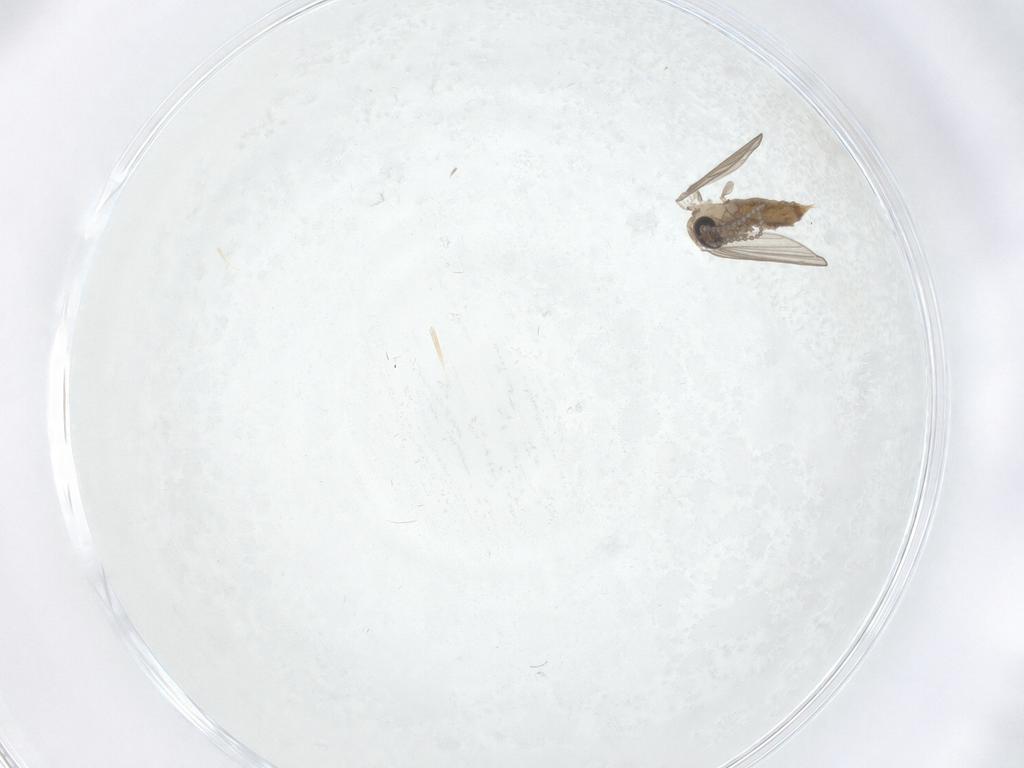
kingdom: Animalia
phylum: Arthropoda
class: Insecta
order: Diptera
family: Psychodidae
